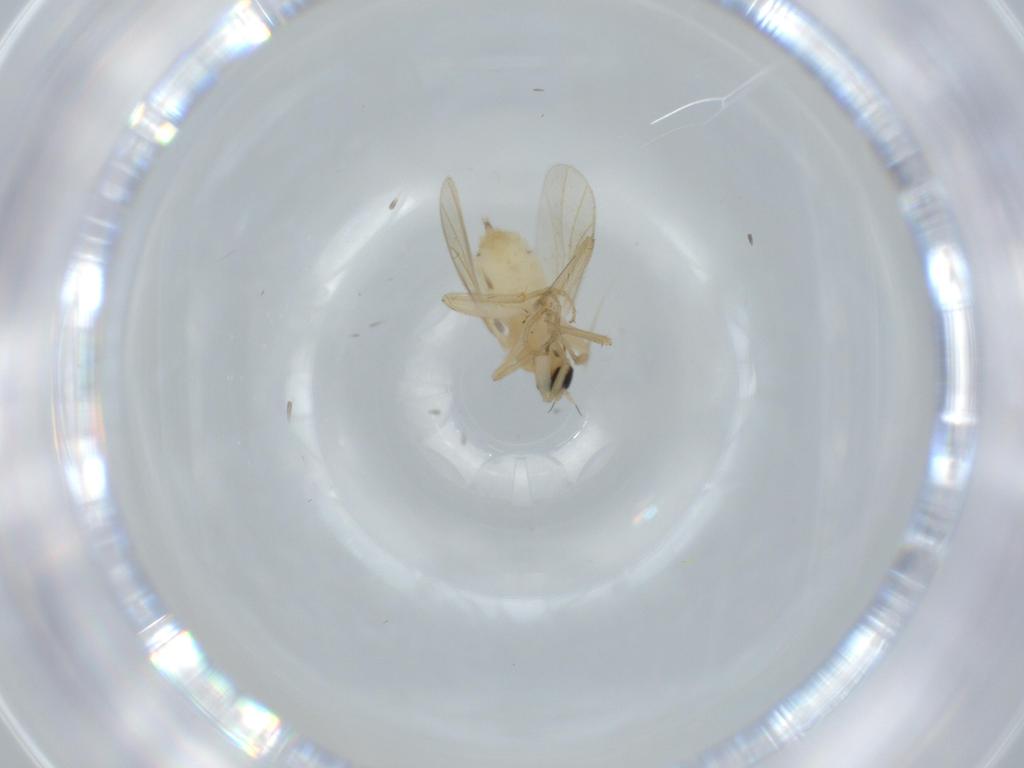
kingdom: Animalia
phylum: Arthropoda
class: Insecta
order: Diptera
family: Hybotidae
